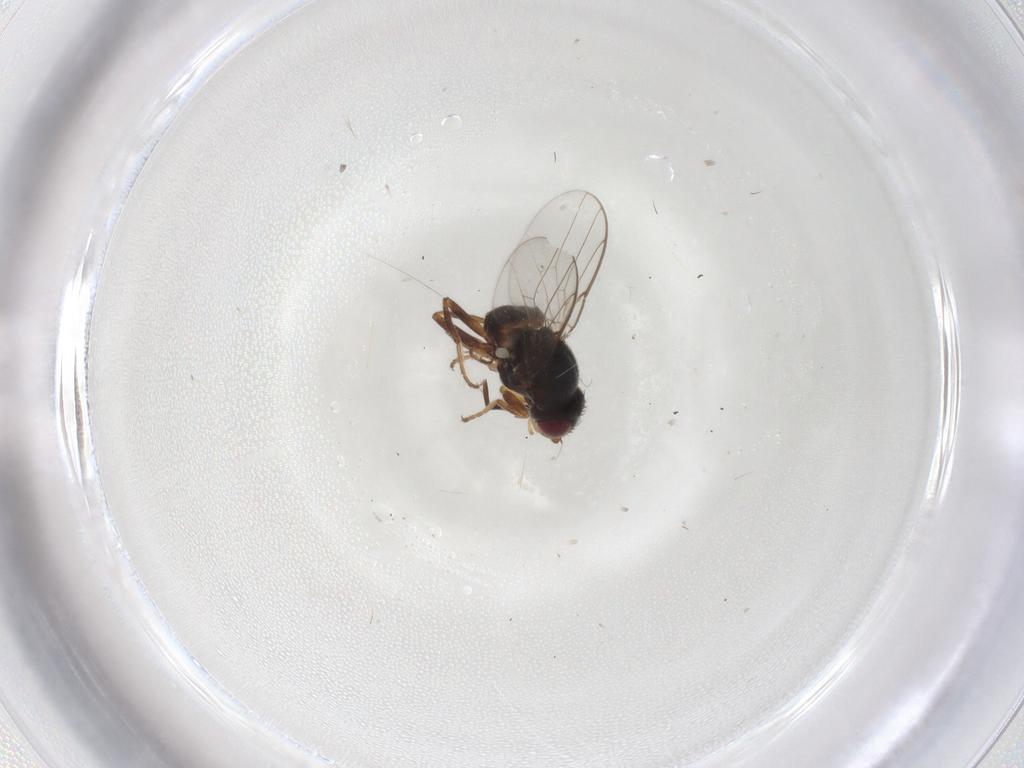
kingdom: Animalia
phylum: Arthropoda
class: Insecta
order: Diptera
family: Chloropidae
